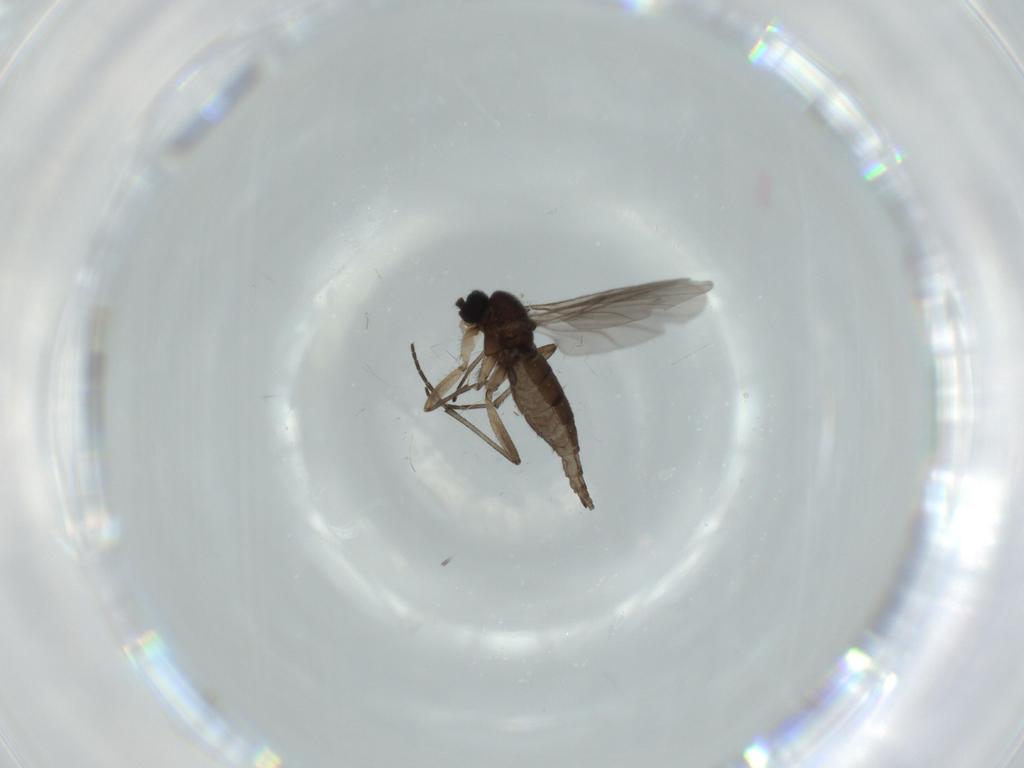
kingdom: Animalia
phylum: Arthropoda
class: Insecta
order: Diptera
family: Sciaridae
